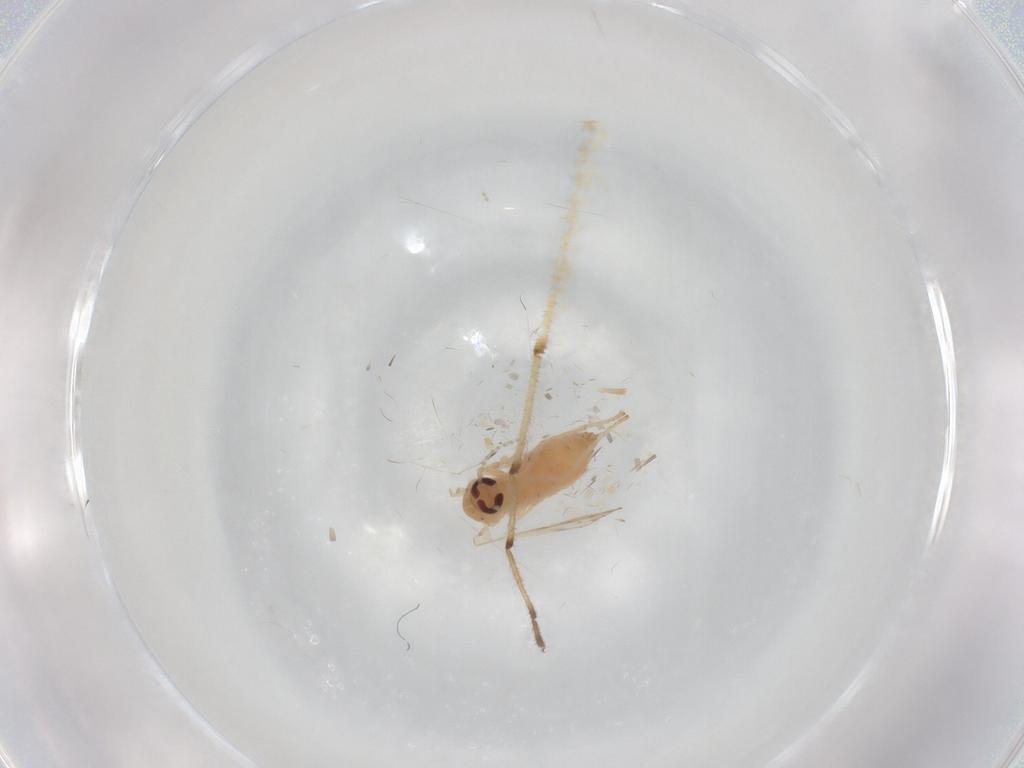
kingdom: Animalia
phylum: Arthropoda
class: Insecta
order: Diptera
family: Psychodidae
